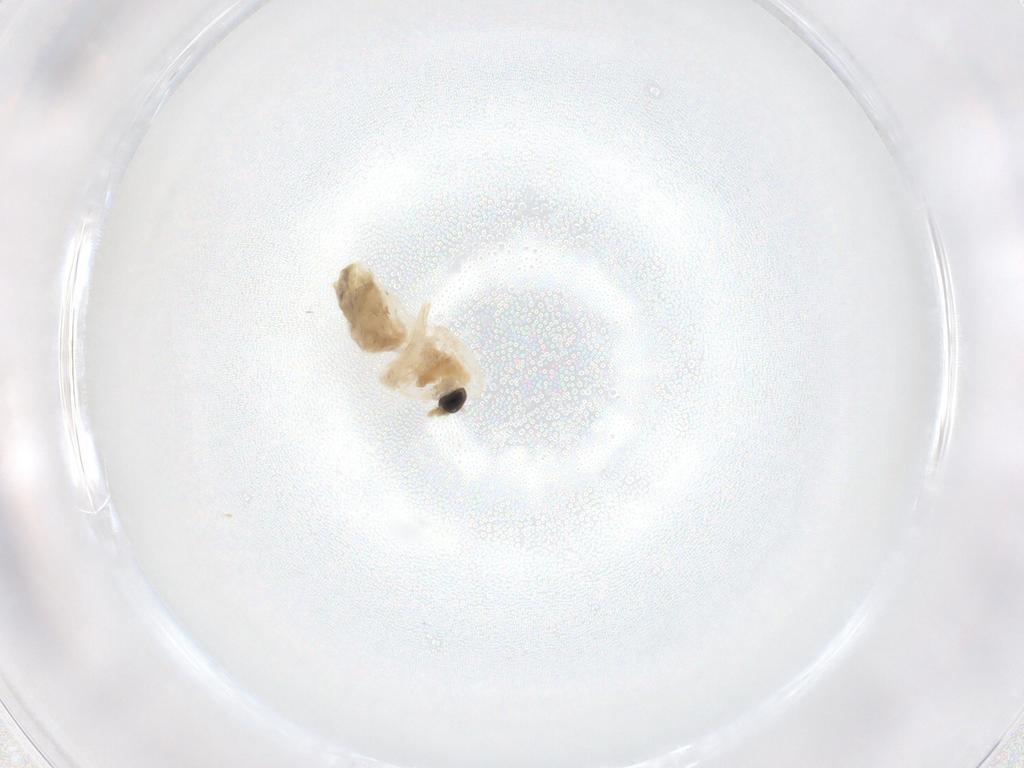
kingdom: Animalia
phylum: Arthropoda
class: Insecta
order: Diptera
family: Chironomidae
